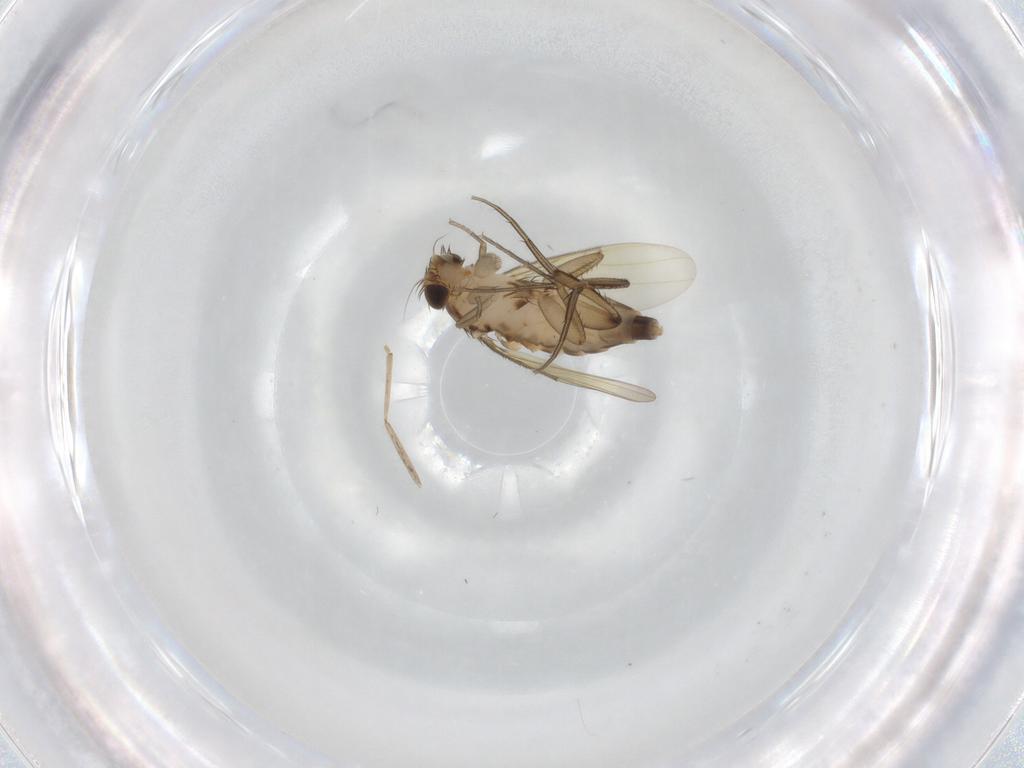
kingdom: Animalia
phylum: Arthropoda
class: Insecta
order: Diptera
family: Phoridae
